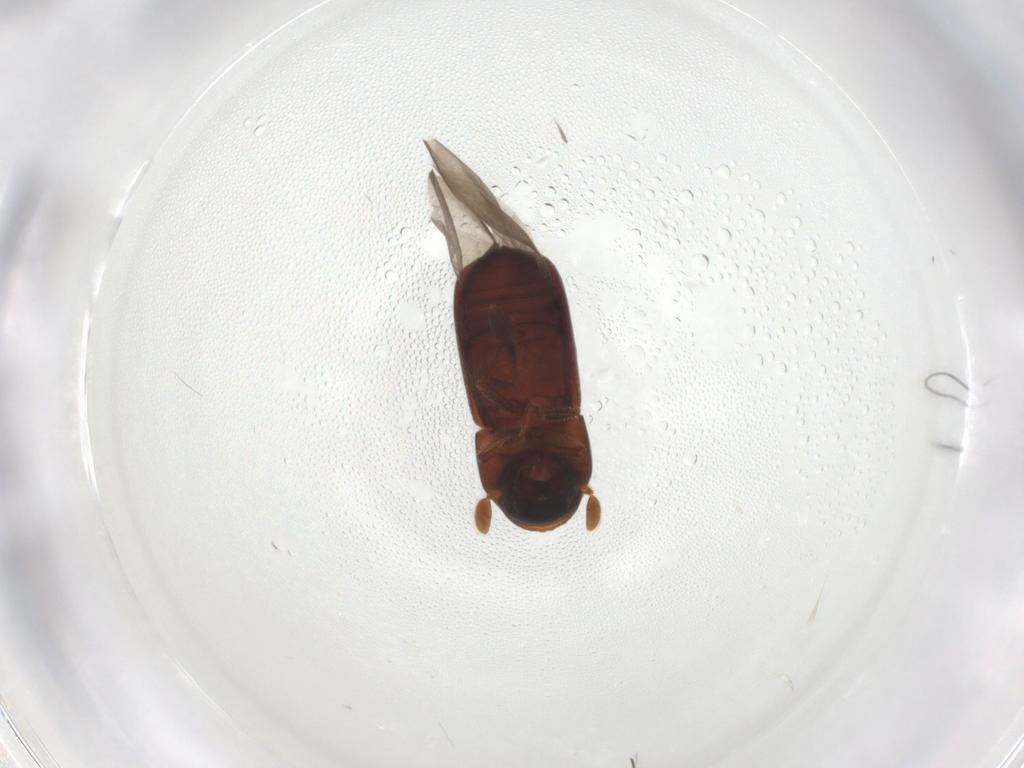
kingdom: Animalia
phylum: Arthropoda
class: Insecta
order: Coleoptera
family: Curculionidae
